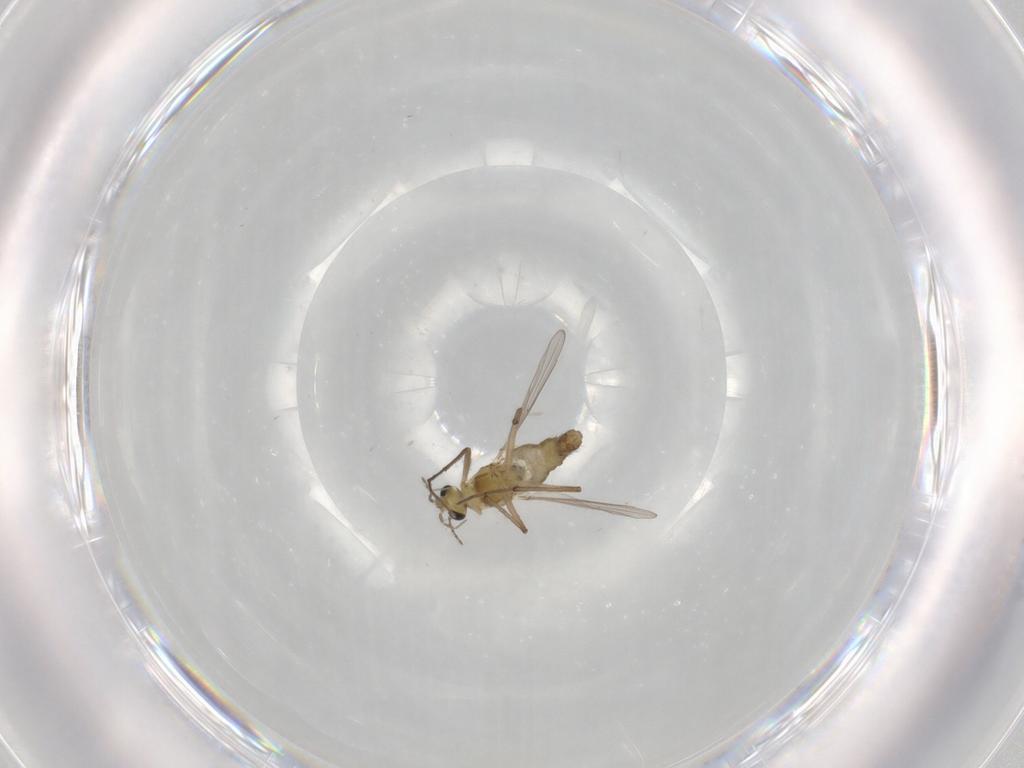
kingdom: Animalia
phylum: Arthropoda
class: Insecta
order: Diptera
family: Chironomidae
